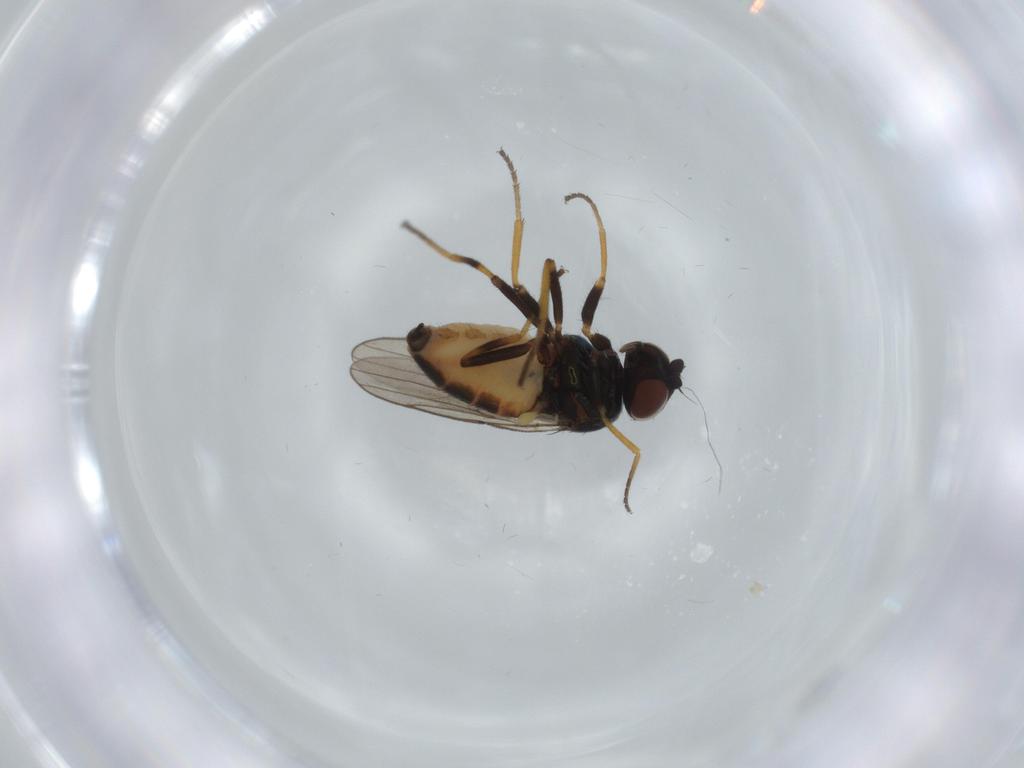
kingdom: Animalia
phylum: Arthropoda
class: Insecta
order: Diptera
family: Chloropidae
